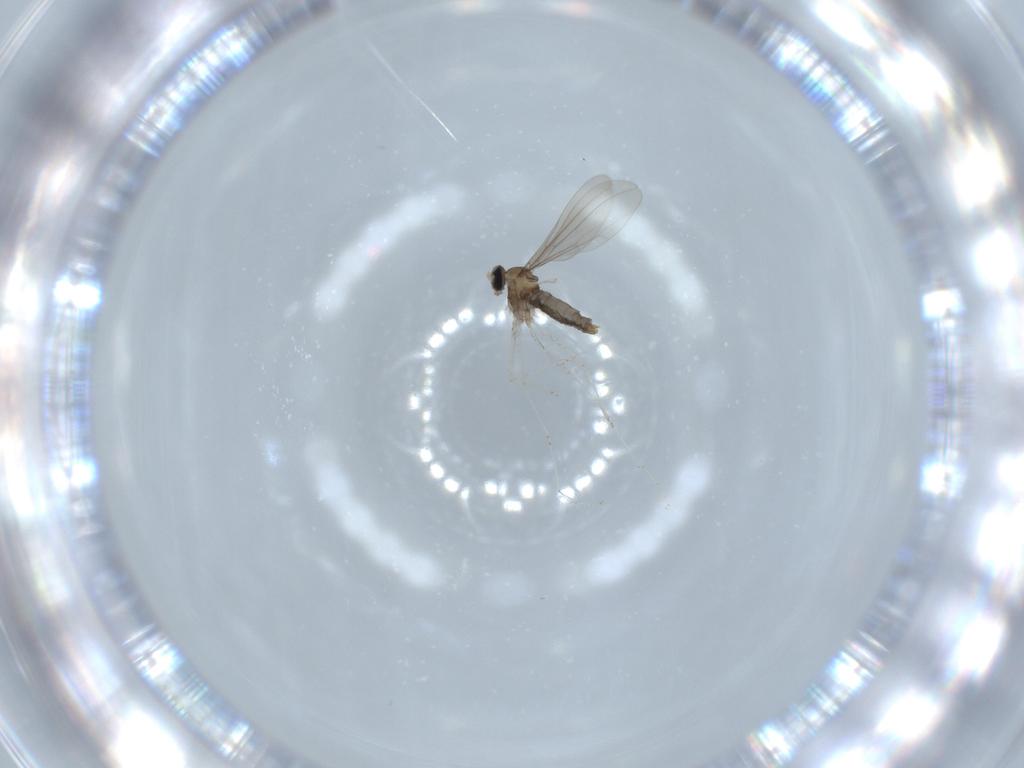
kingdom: Animalia
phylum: Arthropoda
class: Insecta
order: Diptera
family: Cecidomyiidae
